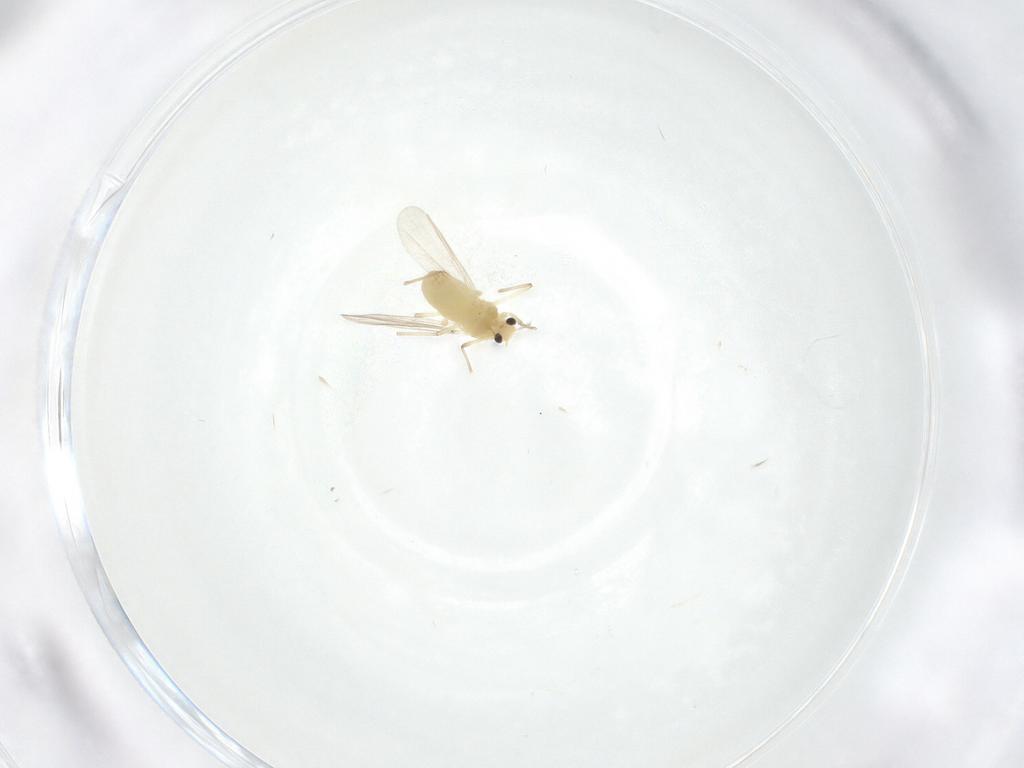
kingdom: Animalia
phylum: Arthropoda
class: Insecta
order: Diptera
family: Chironomidae
